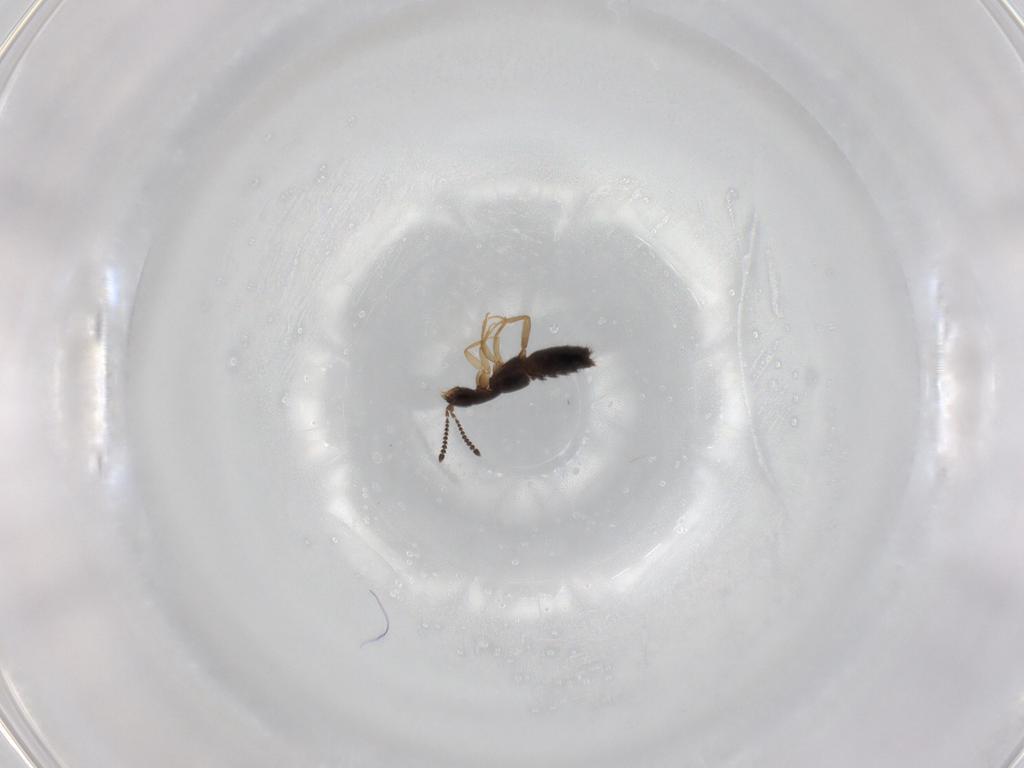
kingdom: Animalia
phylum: Arthropoda
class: Insecta
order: Coleoptera
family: Staphylinidae
